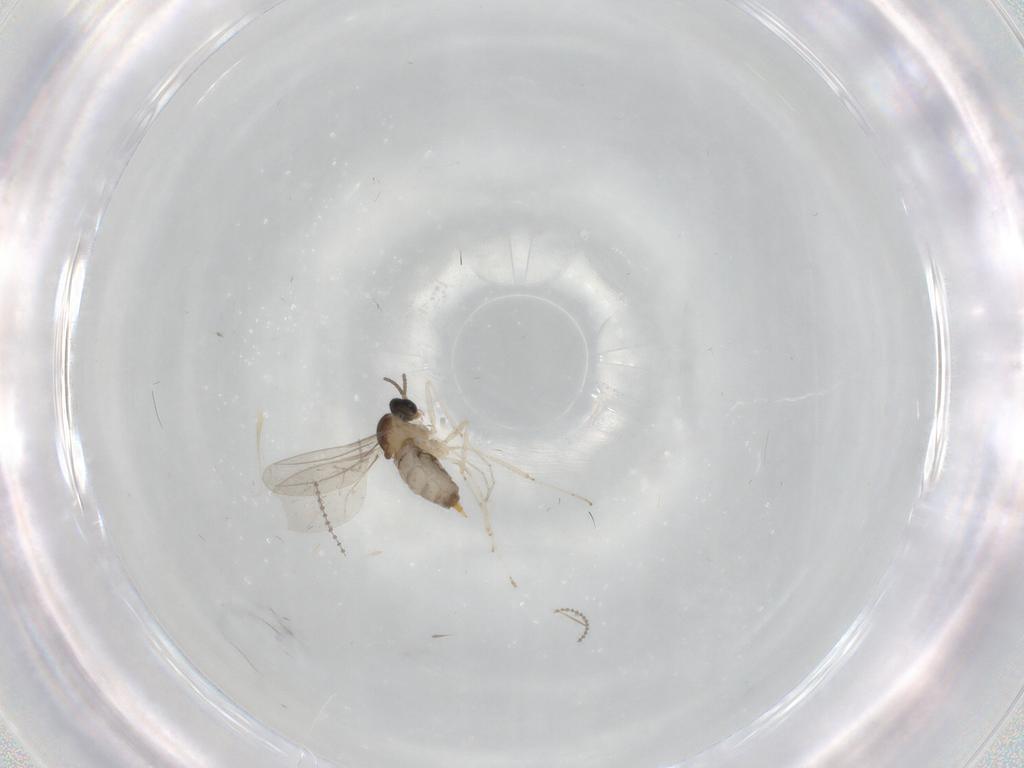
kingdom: Animalia
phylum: Arthropoda
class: Insecta
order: Diptera
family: Cecidomyiidae
